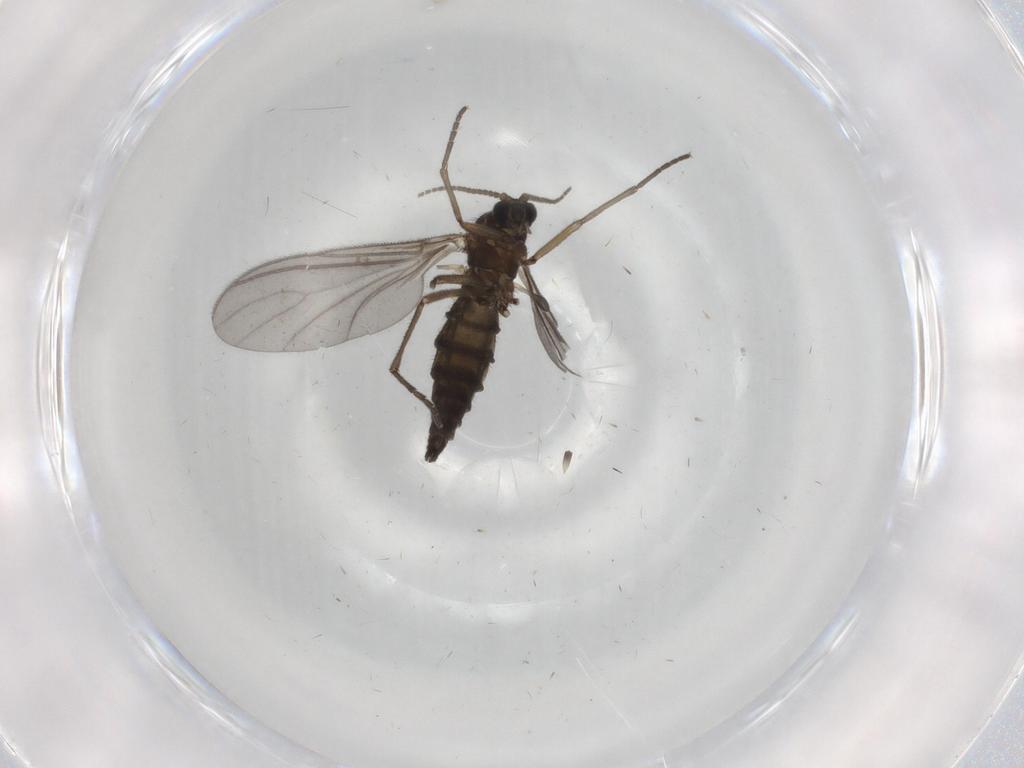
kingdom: Animalia
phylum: Arthropoda
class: Insecta
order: Diptera
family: Sciaridae
